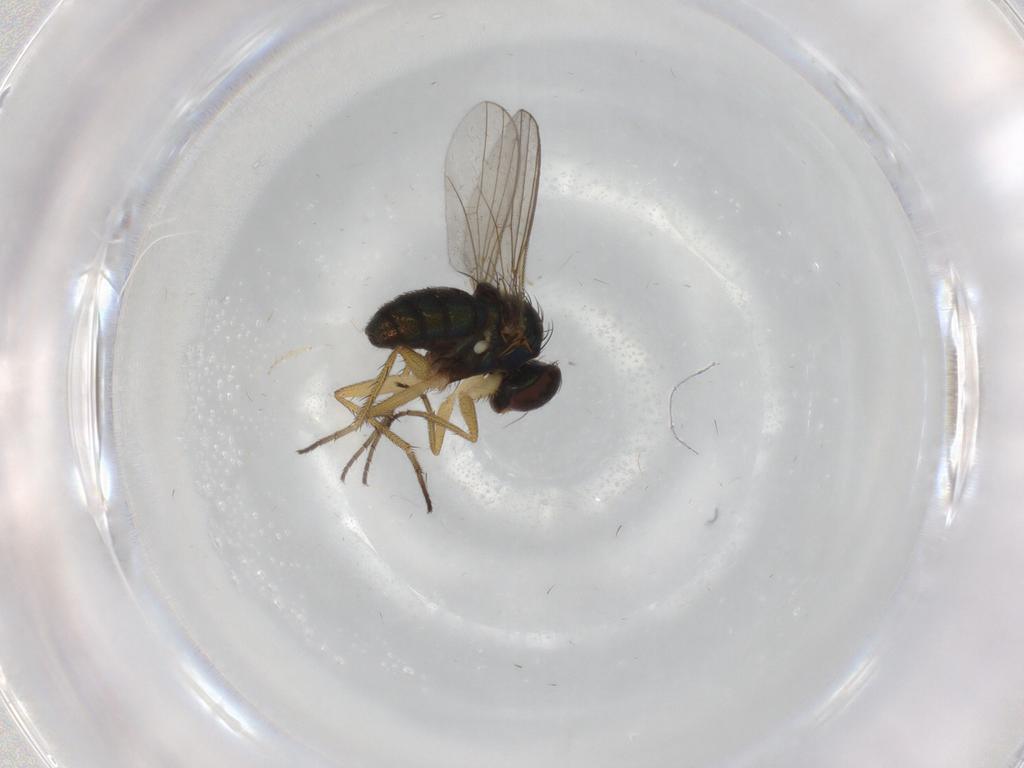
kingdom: Animalia
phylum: Arthropoda
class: Insecta
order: Diptera
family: Dolichopodidae
